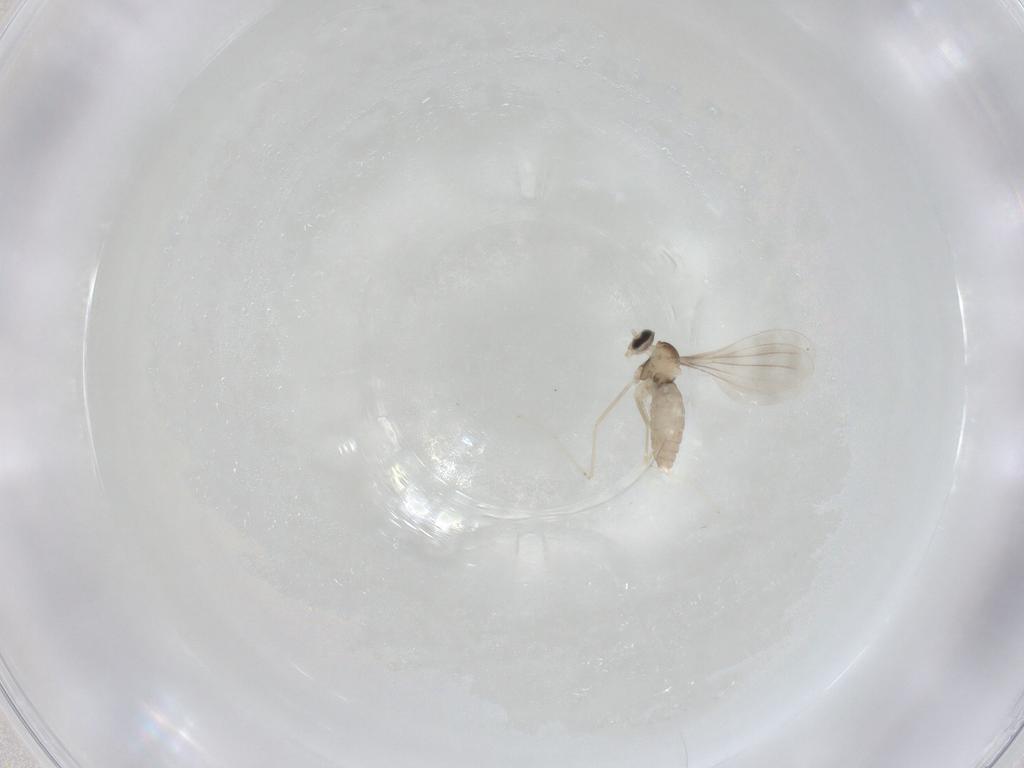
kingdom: Animalia
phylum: Arthropoda
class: Insecta
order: Diptera
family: Cecidomyiidae
